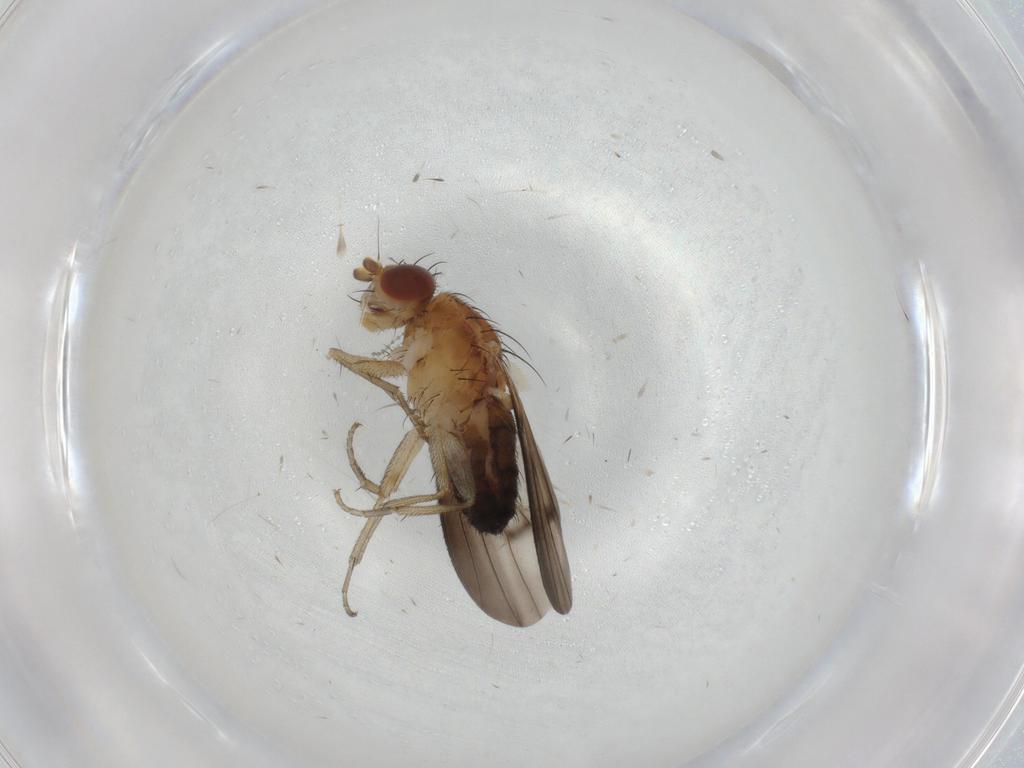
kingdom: Animalia
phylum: Arthropoda
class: Insecta
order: Diptera
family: Heleomyzidae
